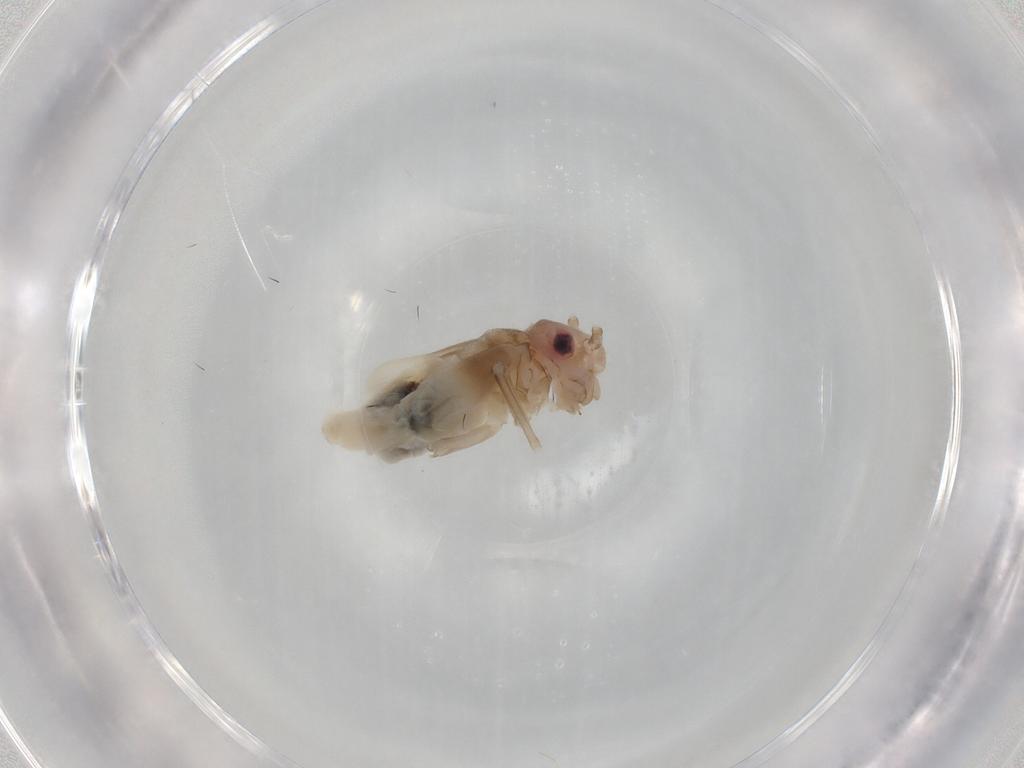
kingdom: Animalia
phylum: Arthropoda
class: Insecta
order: Psocodea
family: Stenopsocidae
